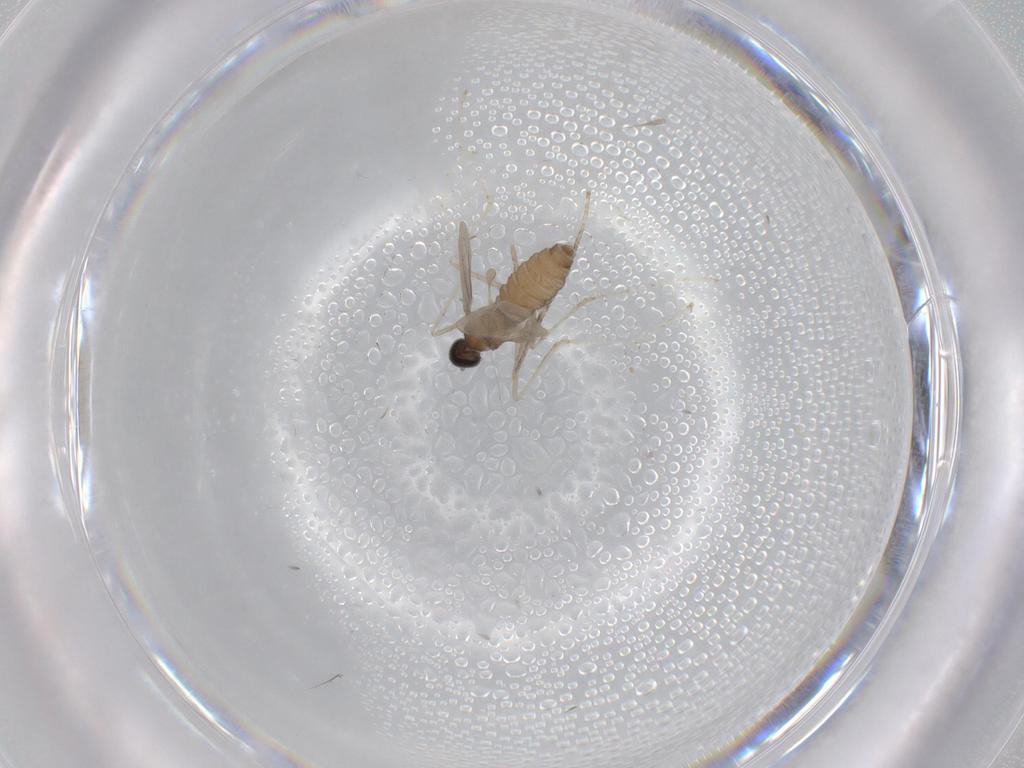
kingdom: Animalia
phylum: Arthropoda
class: Insecta
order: Diptera
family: Cecidomyiidae
